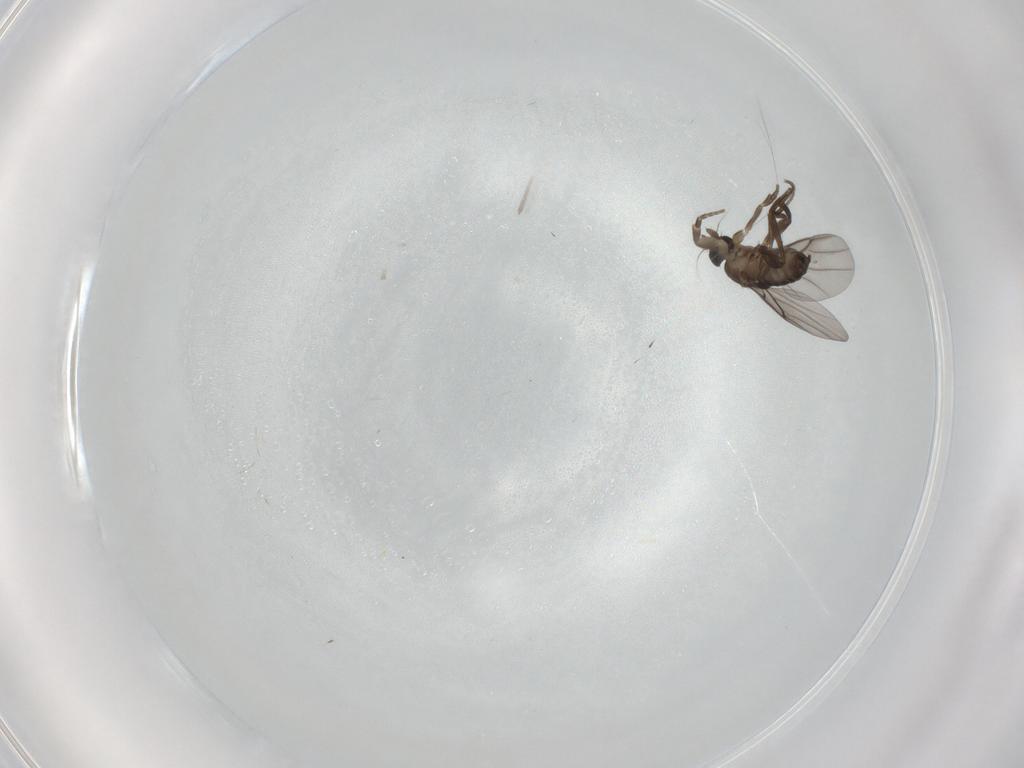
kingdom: Animalia
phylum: Arthropoda
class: Insecta
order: Diptera
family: Phoridae
